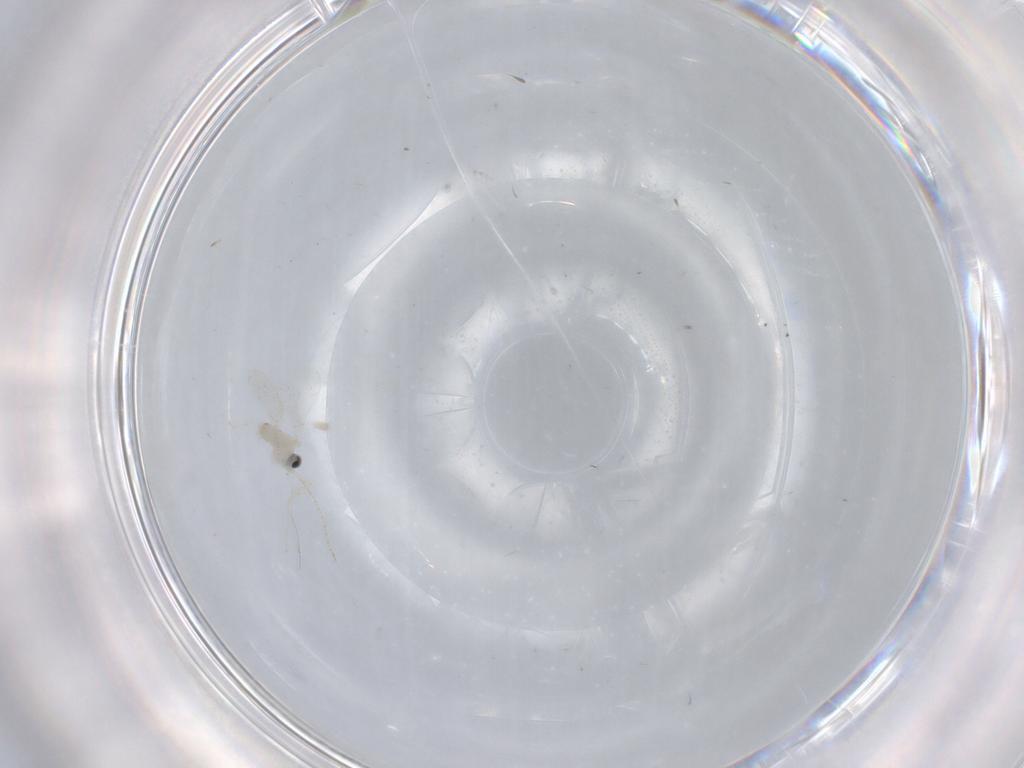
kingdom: Animalia
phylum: Arthropoda
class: Insecta
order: Diptera
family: Cecidomyiidae
